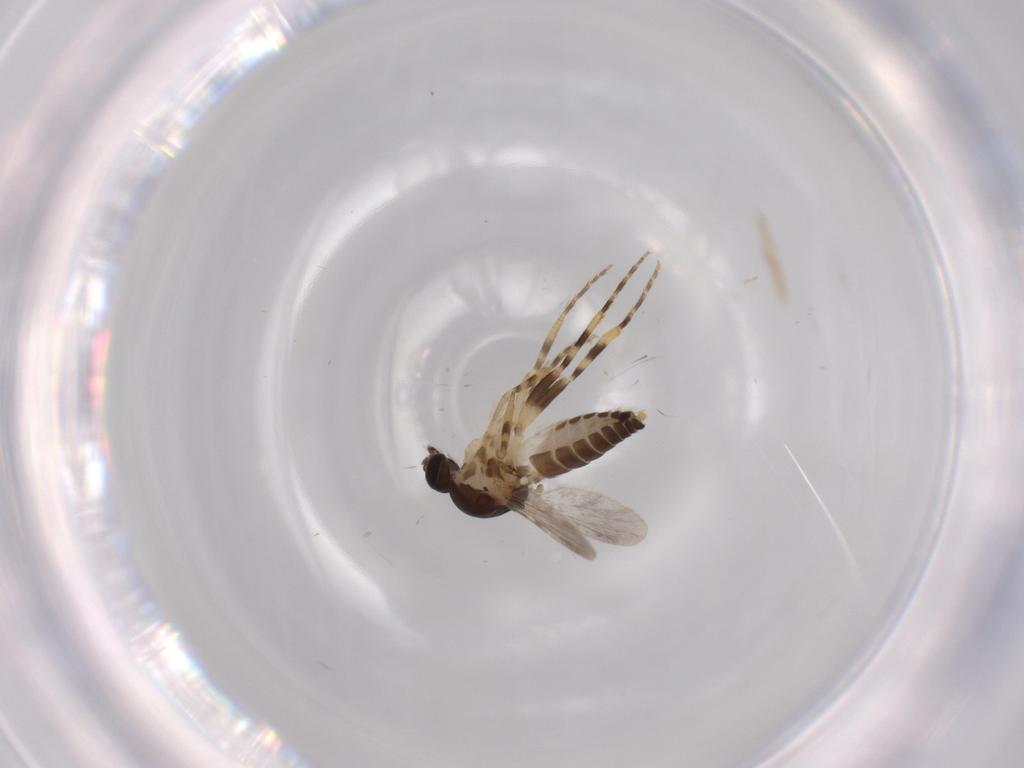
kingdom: Animalia
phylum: Arthropoda
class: Insecta
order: Diptera
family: Ceratopogonidae
